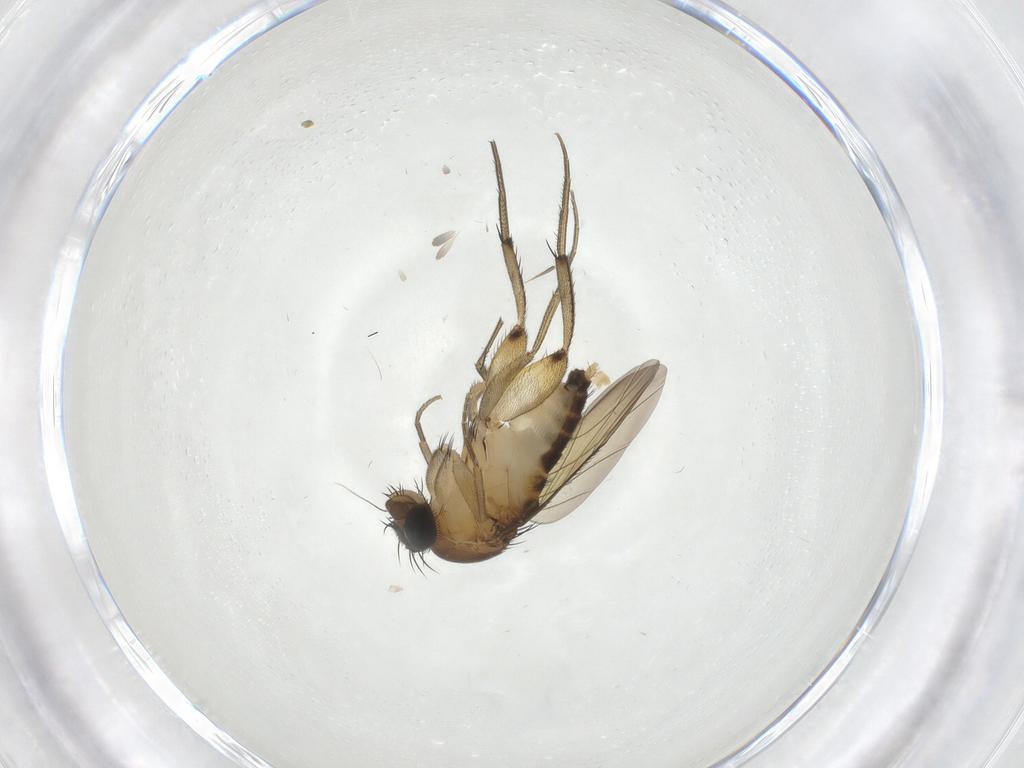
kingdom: Animalia
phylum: Arthropoda
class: Insecta
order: Diptera
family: Phoridae
